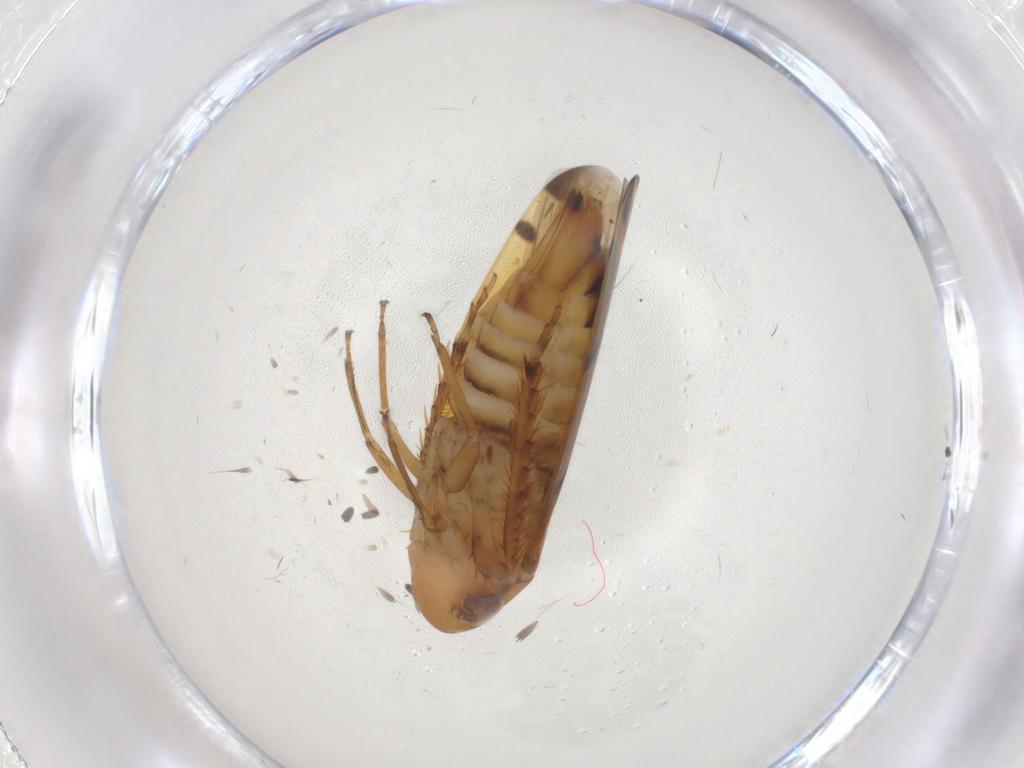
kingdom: Animalia
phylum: Arthropoda
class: Insecta
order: Hemiptera
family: Cicadellidae
